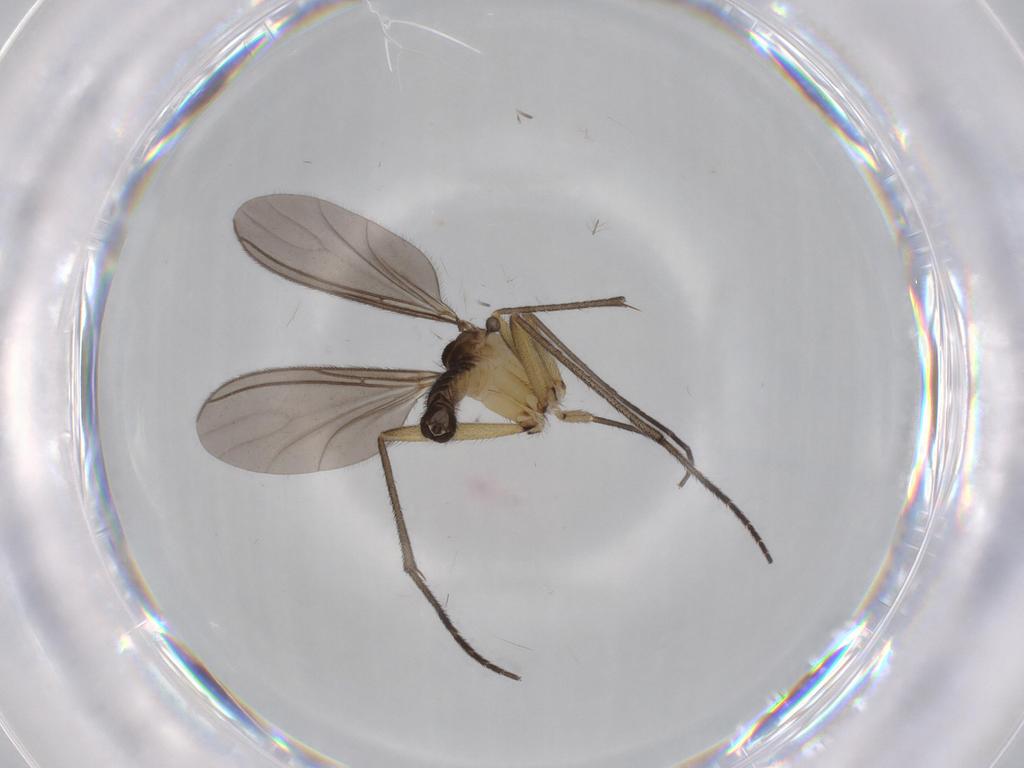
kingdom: Animalia
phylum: Arthropoda
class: Insecta
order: Diptera
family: Sciaridae
